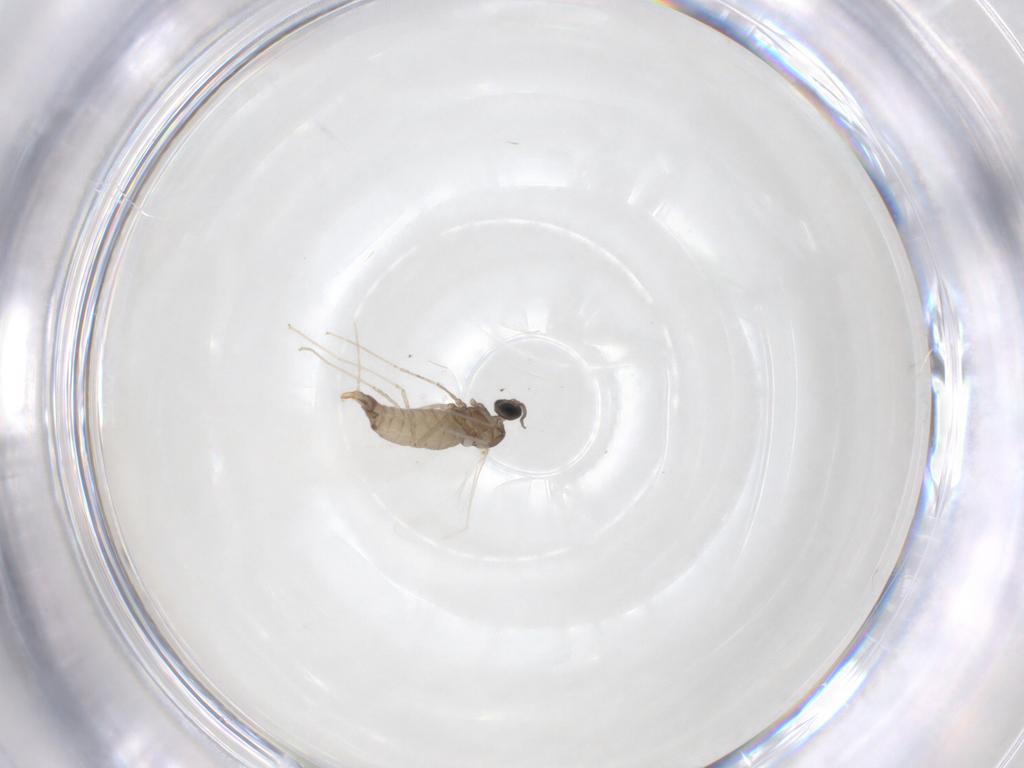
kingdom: Animalia
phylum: Arthropoda
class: Insecta
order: Diptera
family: Cecidomyiidae
